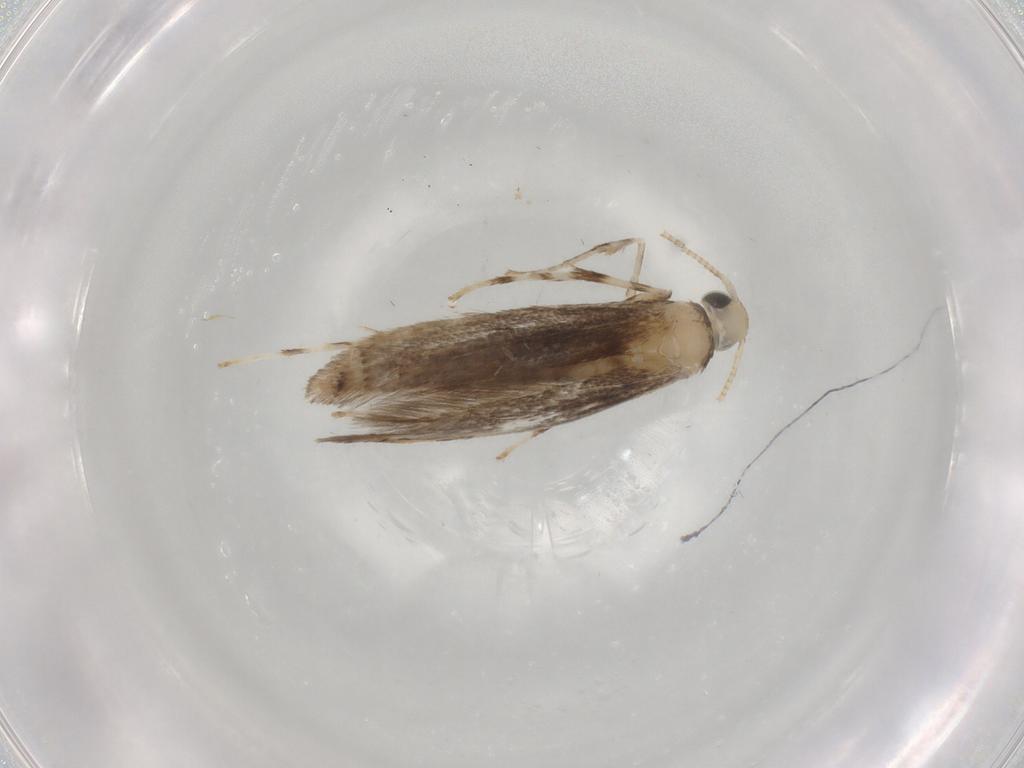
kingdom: Animalia
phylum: Arthropoda
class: Insecta
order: Lepidoptera
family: Gracillariidae
